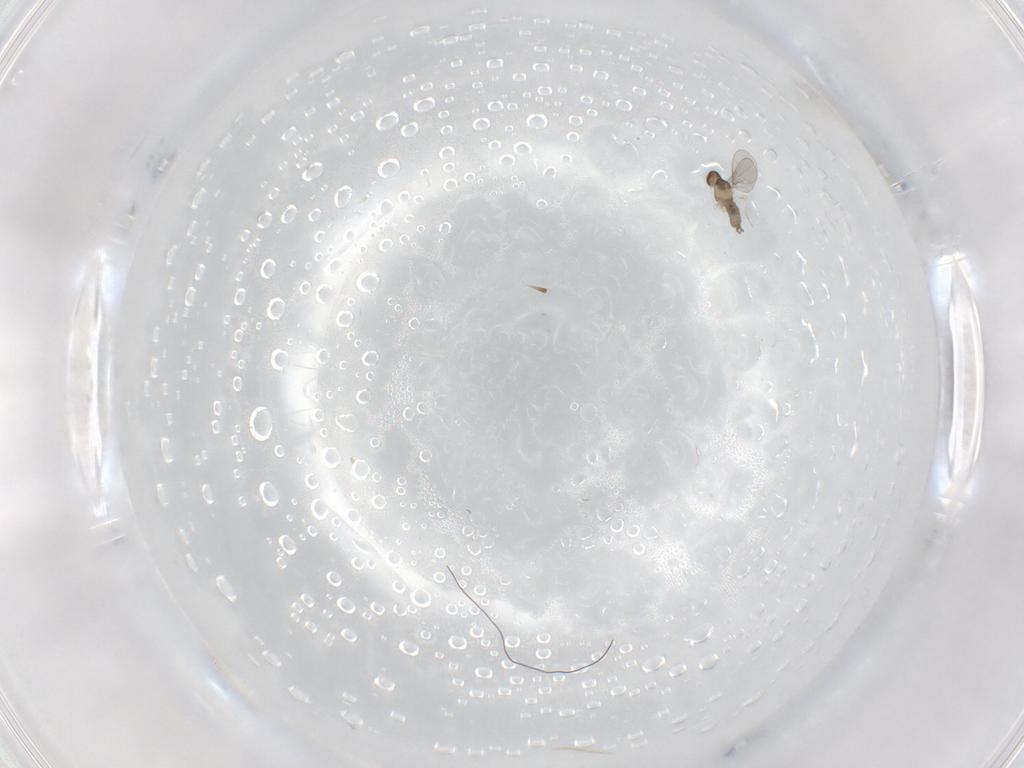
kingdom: Animalia
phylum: Arthropoda
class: Insecta
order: Diptera
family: Cecidomyiidae
